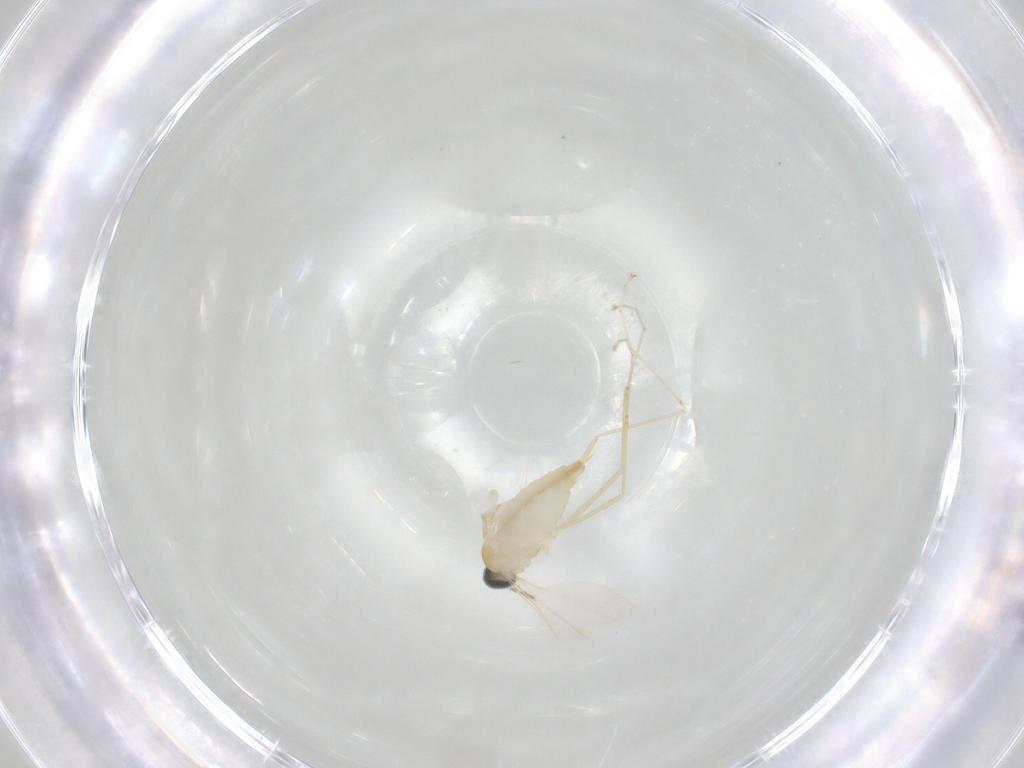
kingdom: Animalia
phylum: Arthropoda
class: Insecta
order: Diptera
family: Cecidomyiidae
